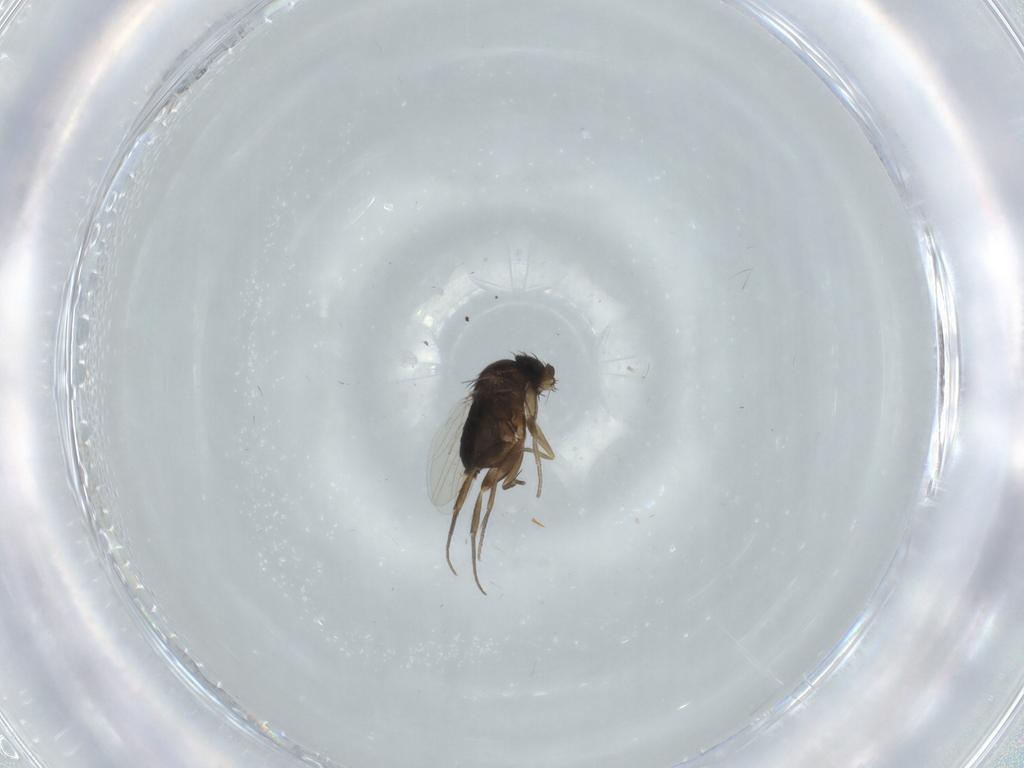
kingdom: Animalia
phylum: Arthropoda
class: Insecta
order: Diptera
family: Phoridae
